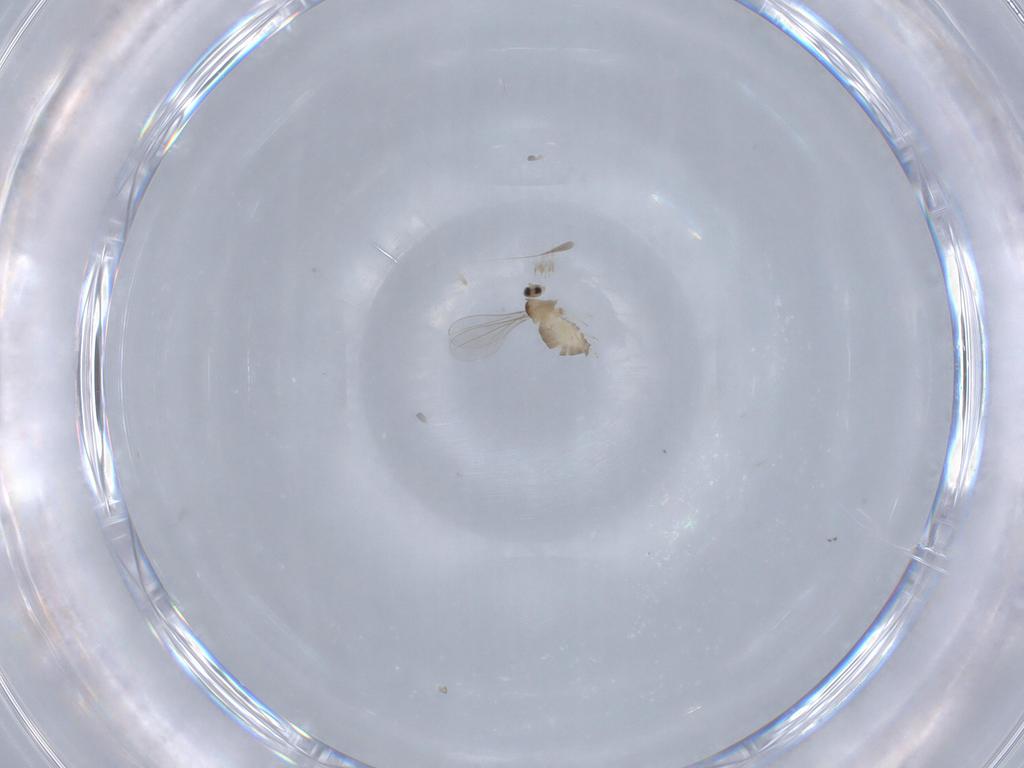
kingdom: Animalia
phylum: Arthropoda
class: Insecta
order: Diptera
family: Cecidomyiidae
